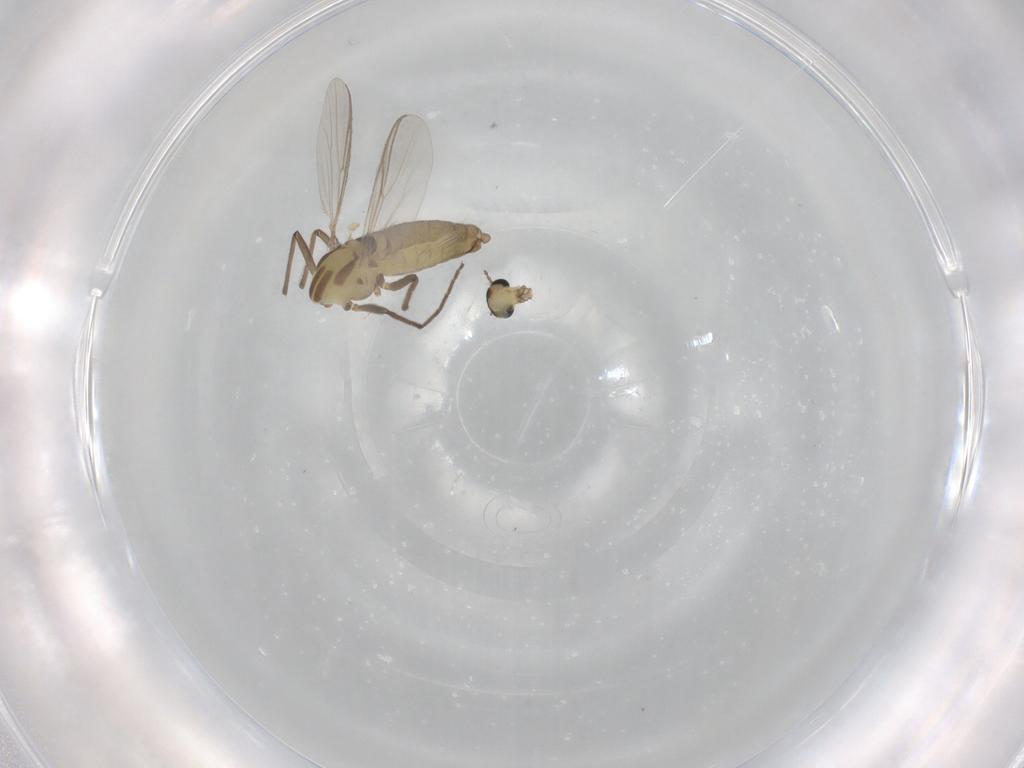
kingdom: Animalia
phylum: Arthropoda
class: Insecta
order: Diptera
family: Chironomidae
